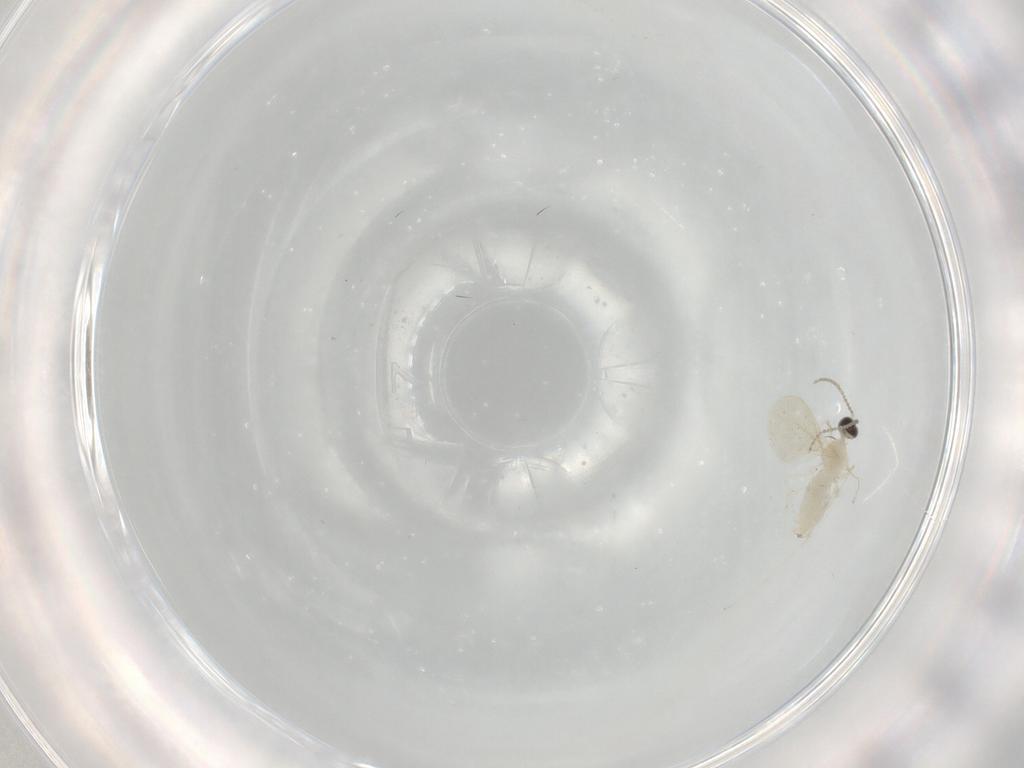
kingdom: Animalia
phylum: Arthropoda
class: Insecta
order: Diptera
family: Cecidomyiidae
